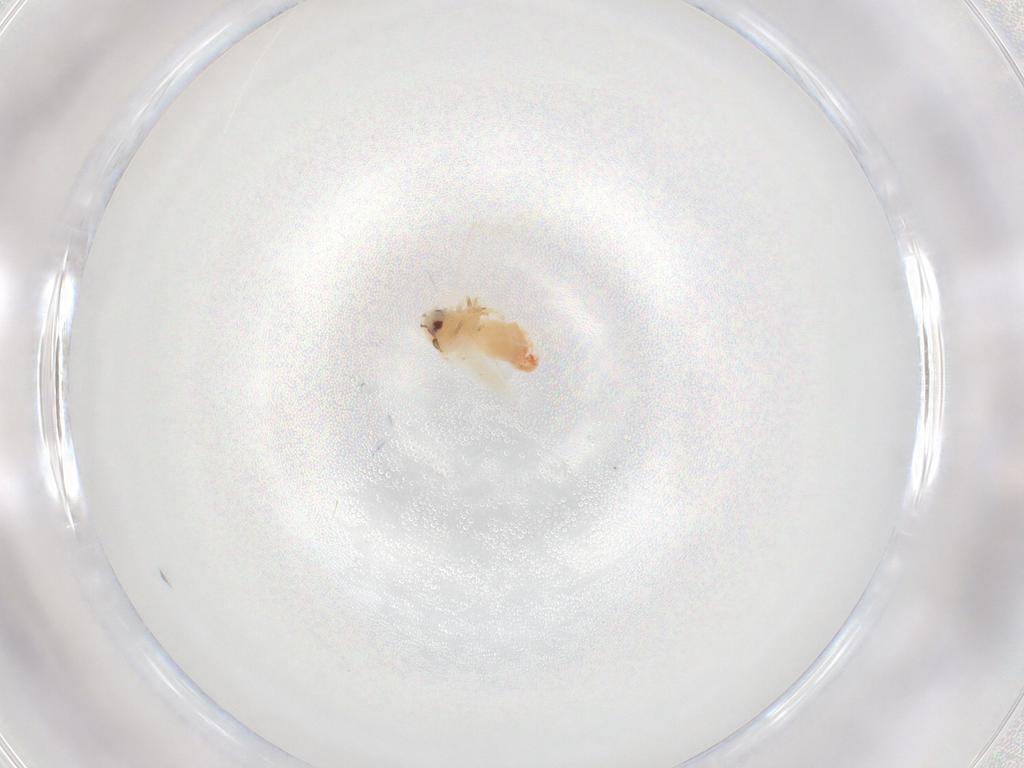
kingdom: Animalia
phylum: Arthropoda
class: Insecta
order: Hemiptera
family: Aleyrodidae
